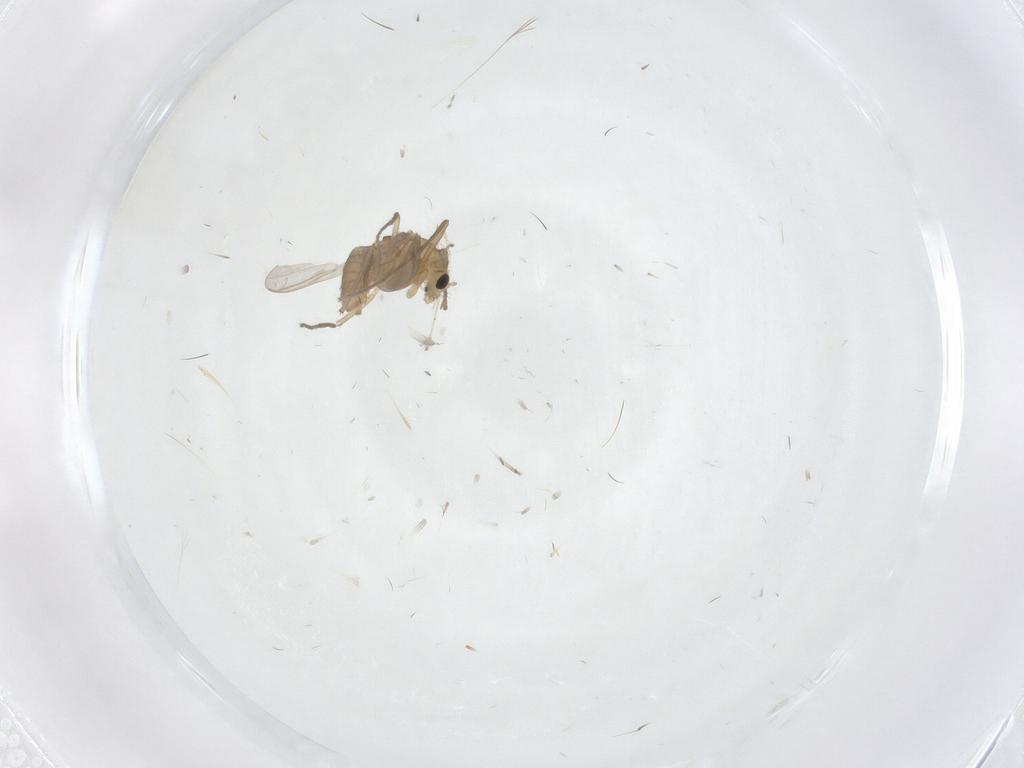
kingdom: Animalia
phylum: Arthropoda
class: Insecta
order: Diptera
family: Chironomidae
